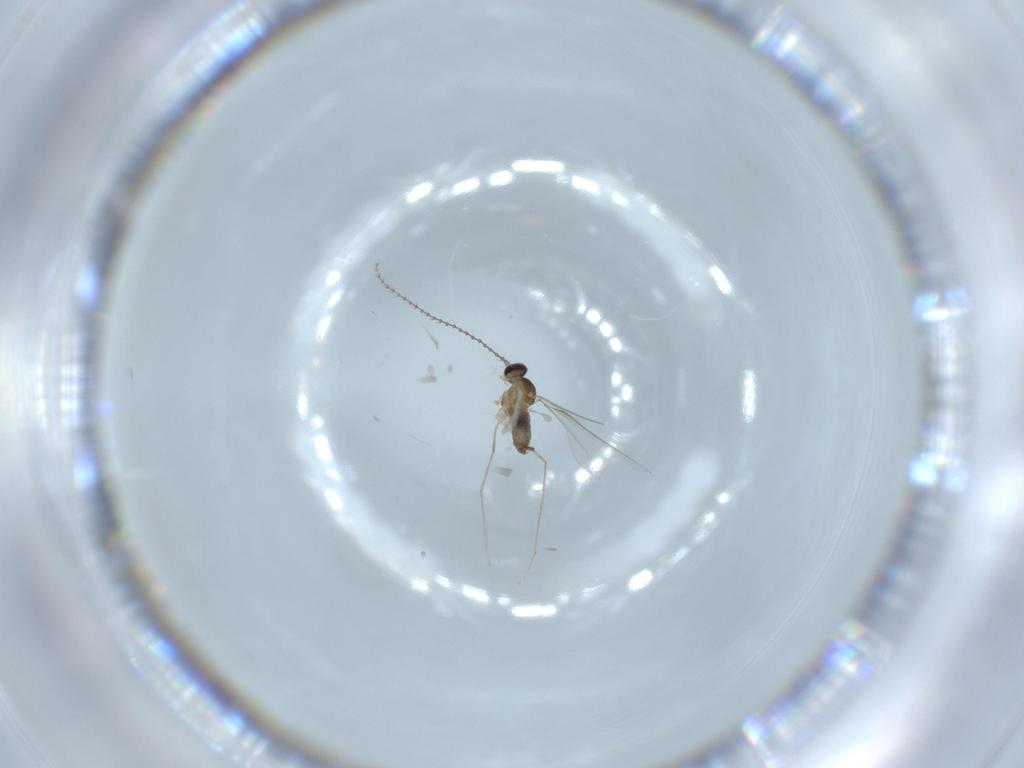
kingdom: Animalia
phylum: Arthropoda
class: Insecta
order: Diptera
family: Cecidomyiidae
